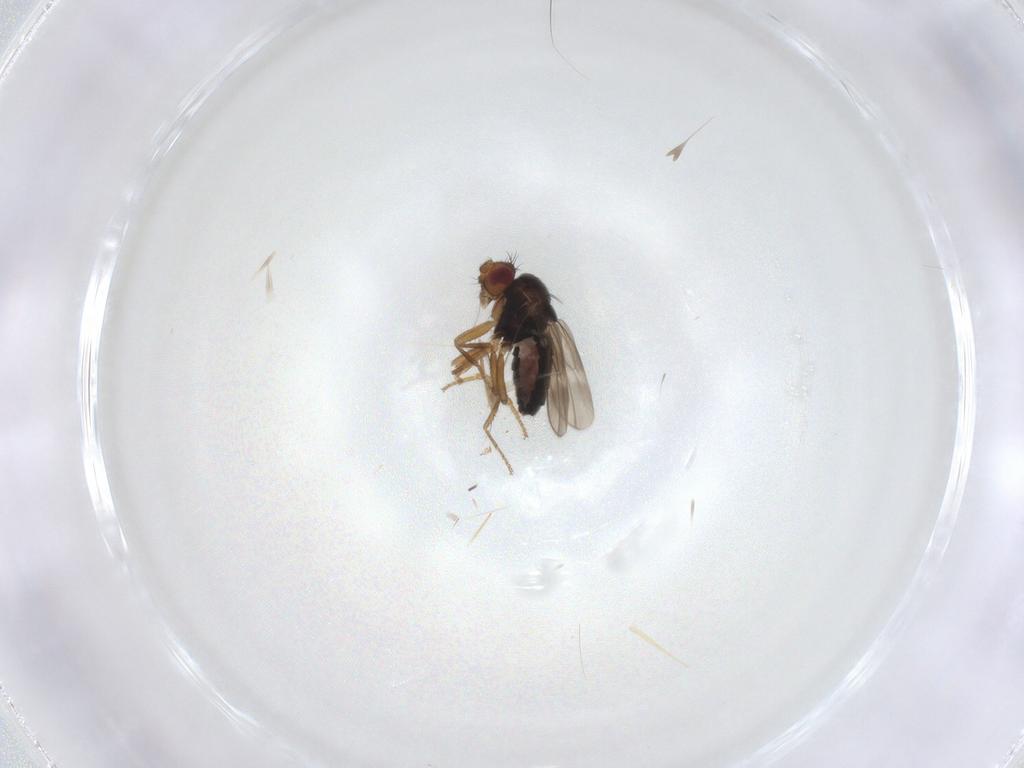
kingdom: Animalia
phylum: Arthropoda
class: Insecta
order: Diptera
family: Sphaeroceridae
